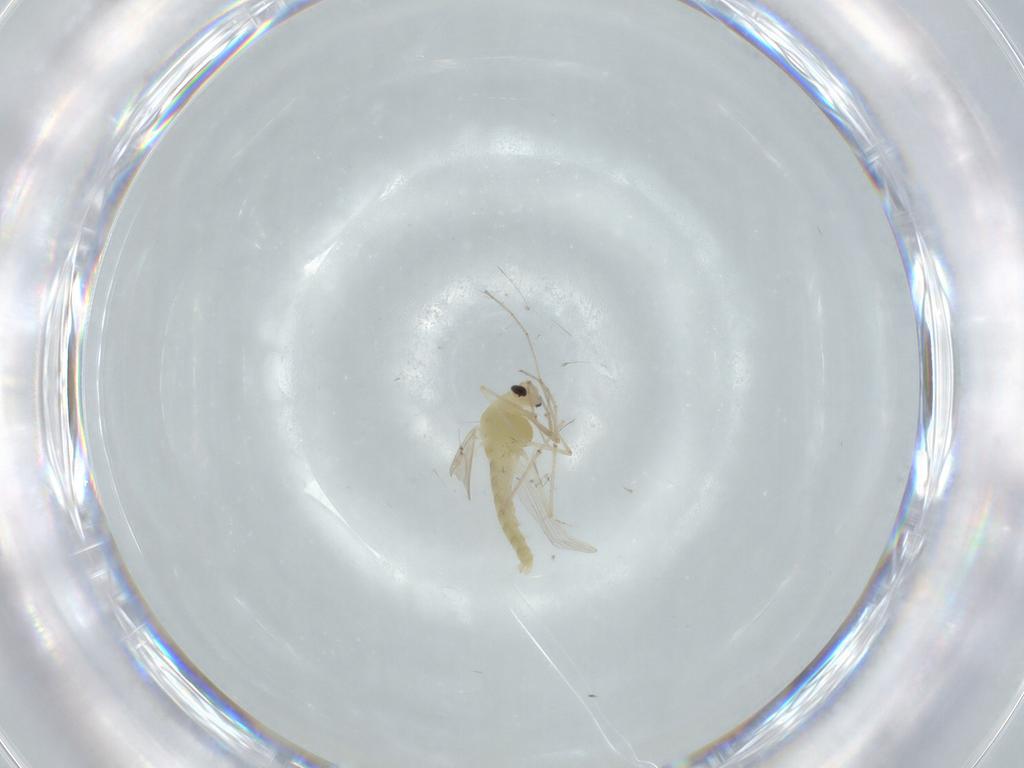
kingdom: Animalia
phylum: Arthropoda
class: Insecta
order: Diptera
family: Chironomidae
